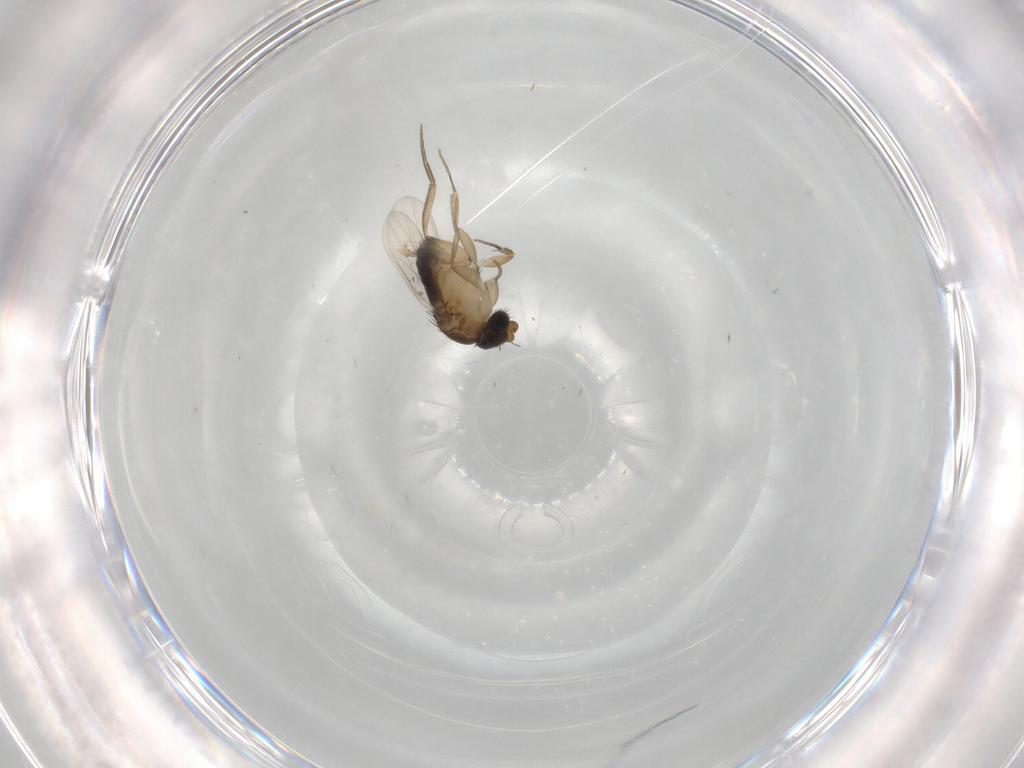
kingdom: Animalia
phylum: Arthropoda
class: Insecta
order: Diptera
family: Phoridae
